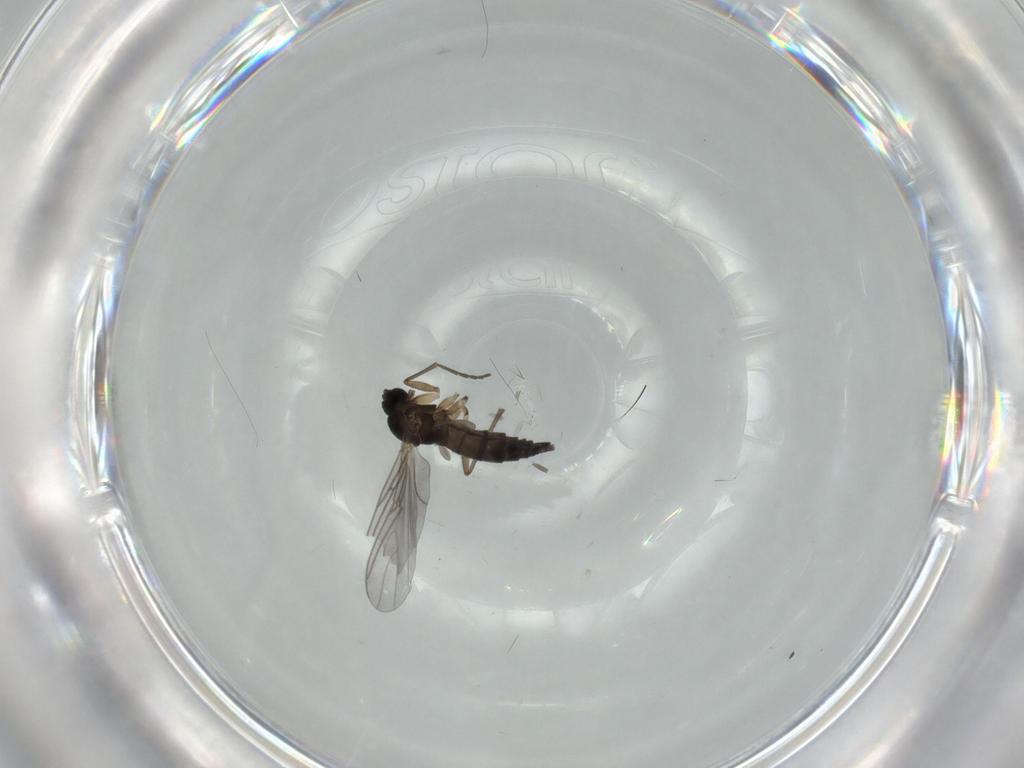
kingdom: Animalia
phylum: Arthropoda
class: Insecta
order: Diptera
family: Sciaridae
